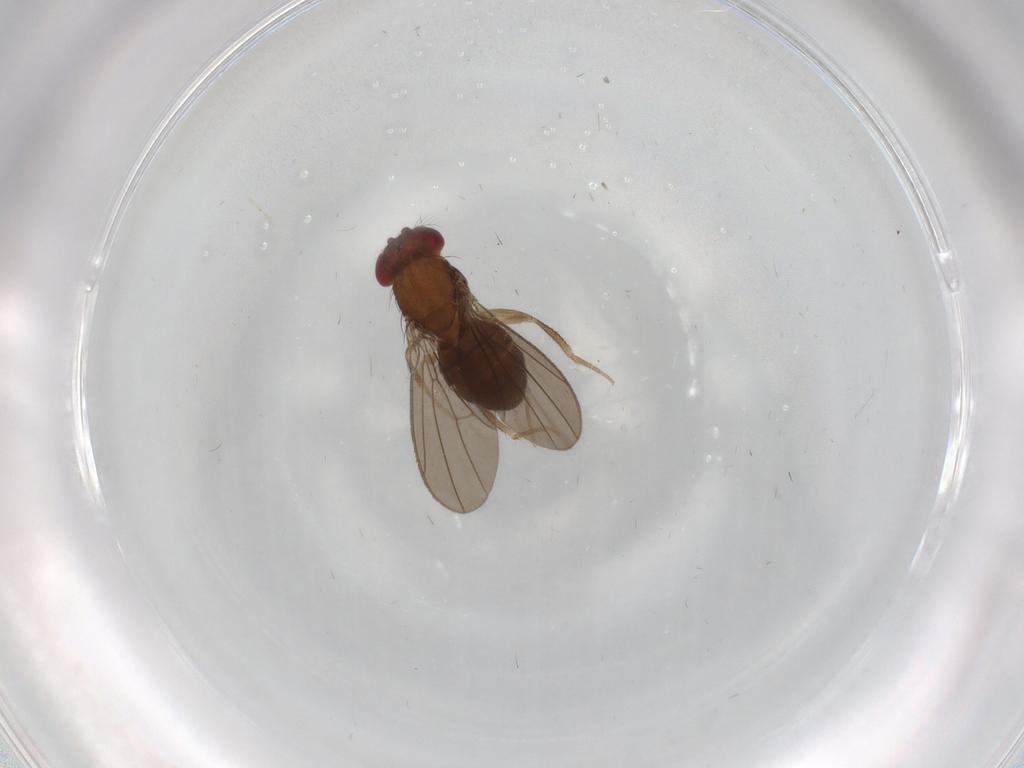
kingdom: Animalia
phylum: Arthropoda
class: Insecta
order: Diptera
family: Drosophilidae
